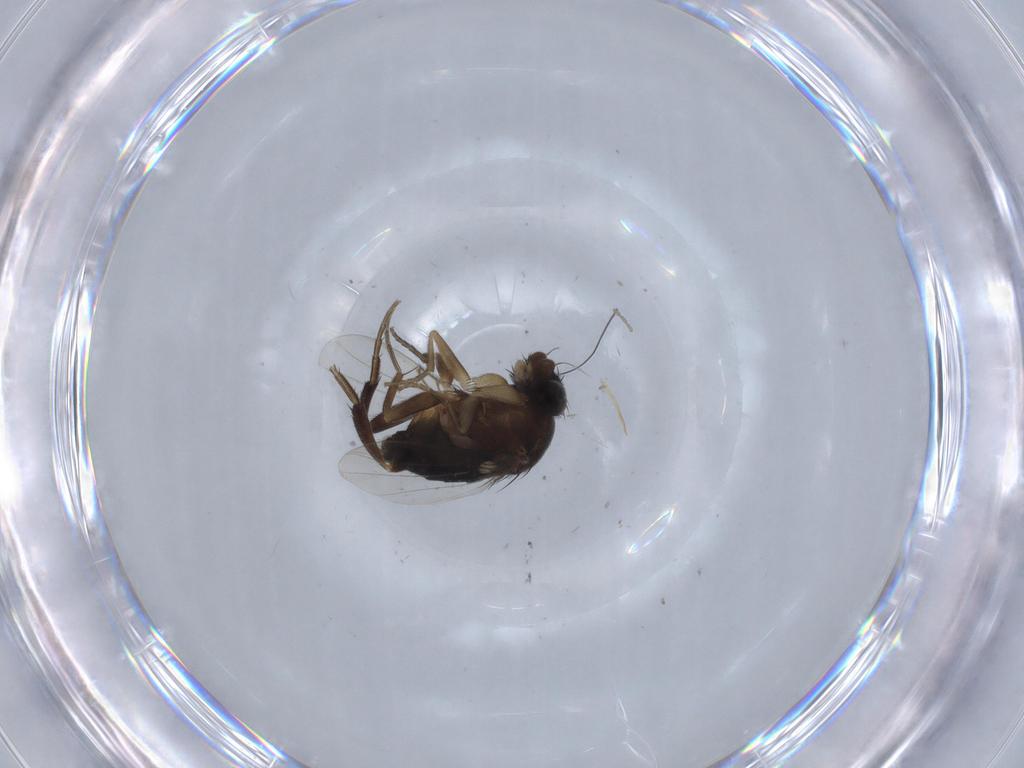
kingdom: Animalia
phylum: Arthropoda
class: Insecta
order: Diptera
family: Phoridae
